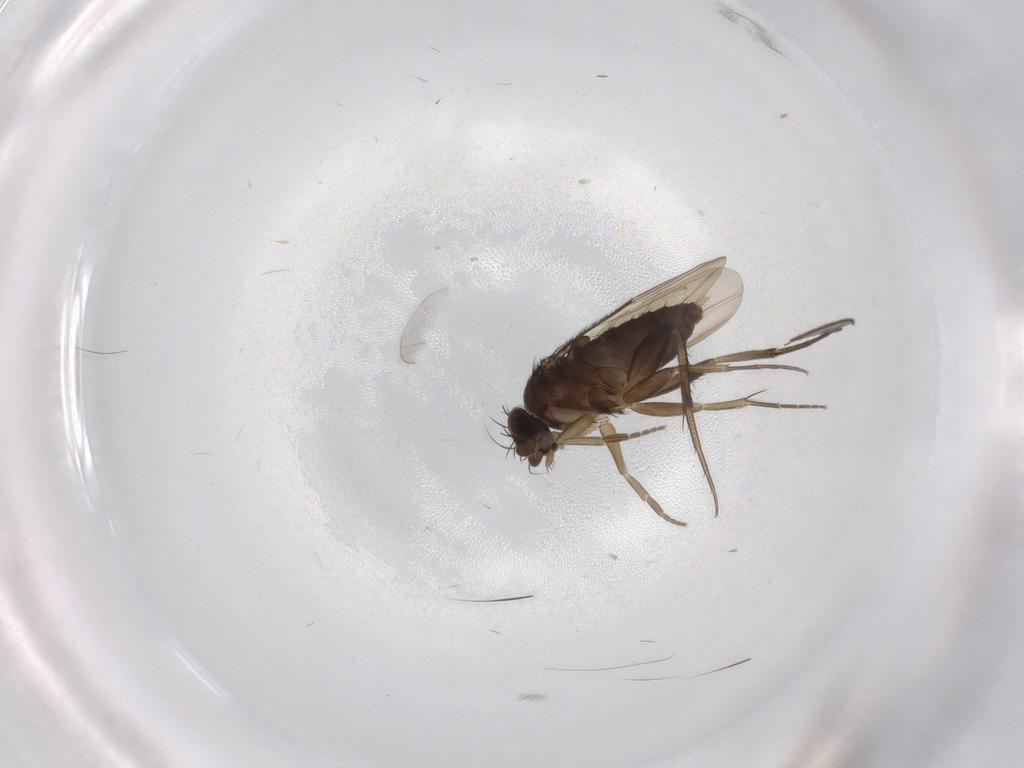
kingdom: Animalia
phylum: Arthropoda
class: Insecta
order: Diptera
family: Phoridae
